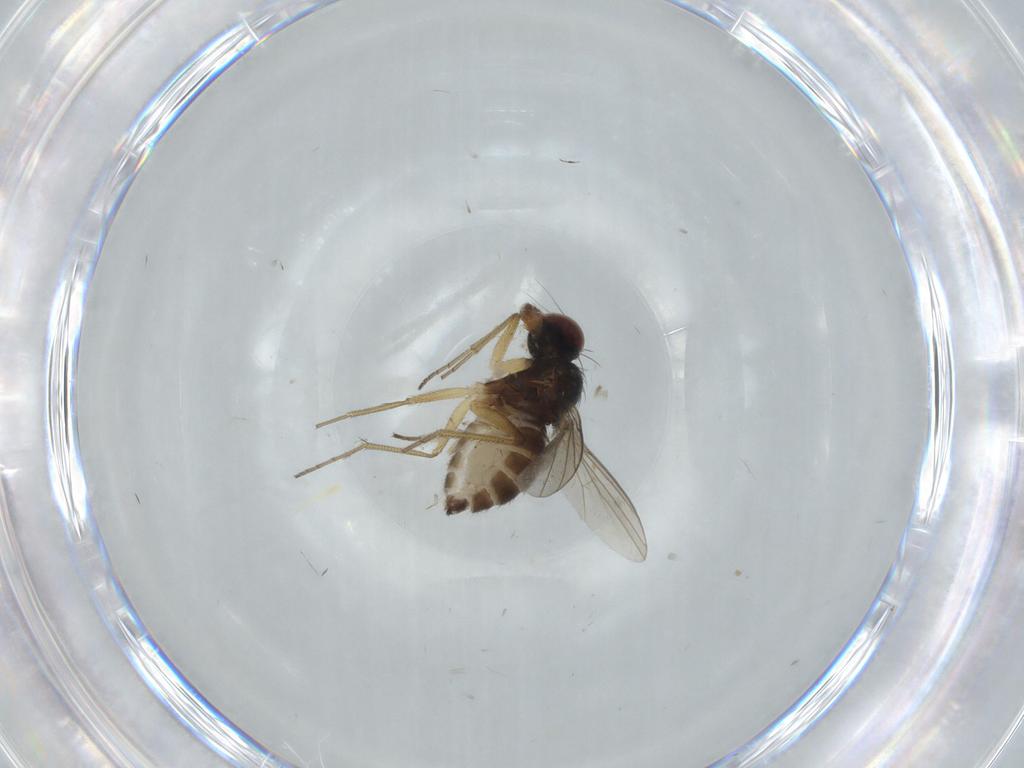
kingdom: Animalia
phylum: Arthropoda
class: Insecta
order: Diptera
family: Dolichopodidae
